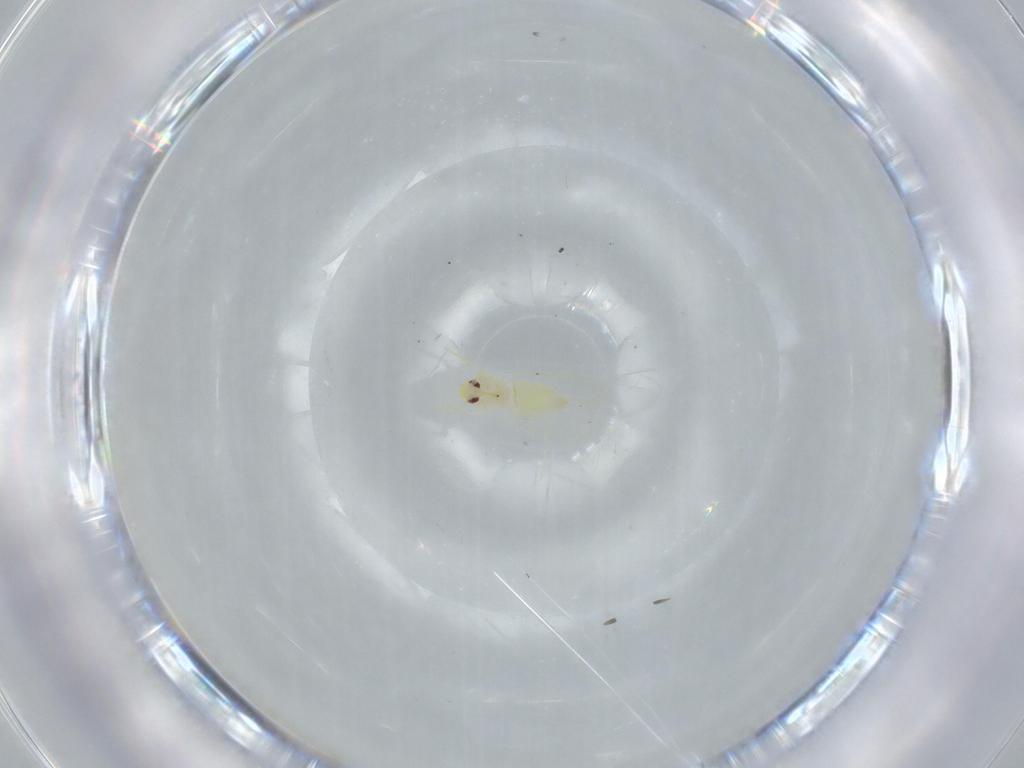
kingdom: Animalia
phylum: Arthropoda
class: Insecta
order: Hemiptera
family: Aleyrodidae
